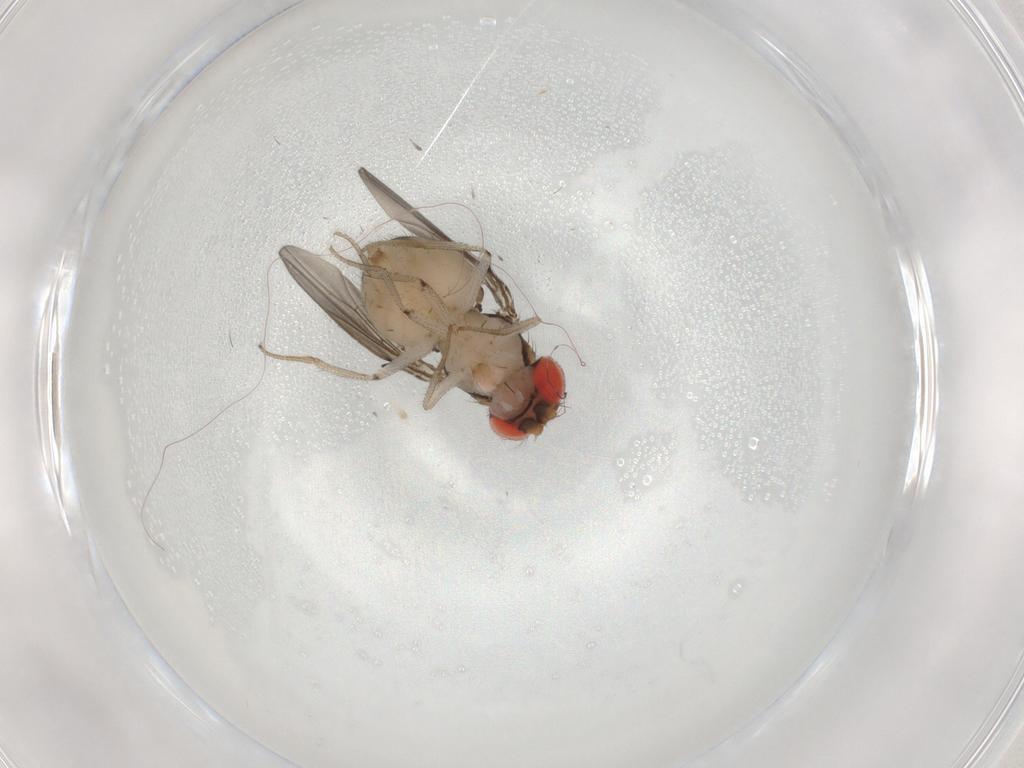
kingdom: Animalia
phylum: Arthropoda
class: Insecta
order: Diptera
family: Drosophilidae
